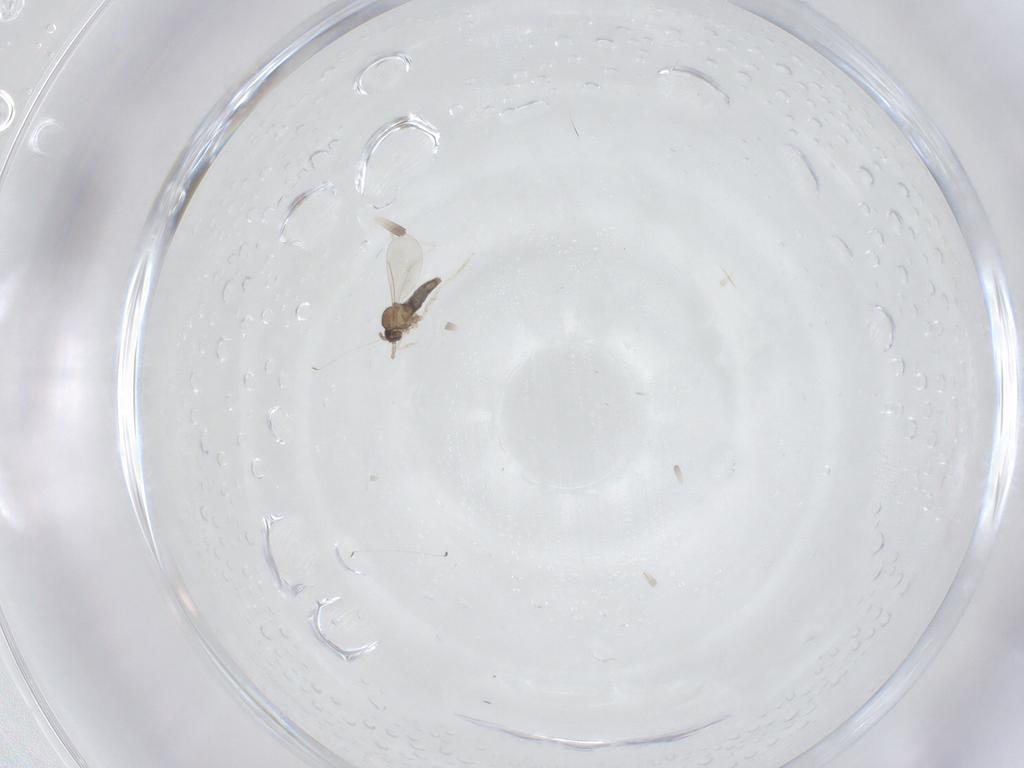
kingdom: Animalia
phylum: Arthropoda
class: Insecta
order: Diptera
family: Cecidomyiidae
